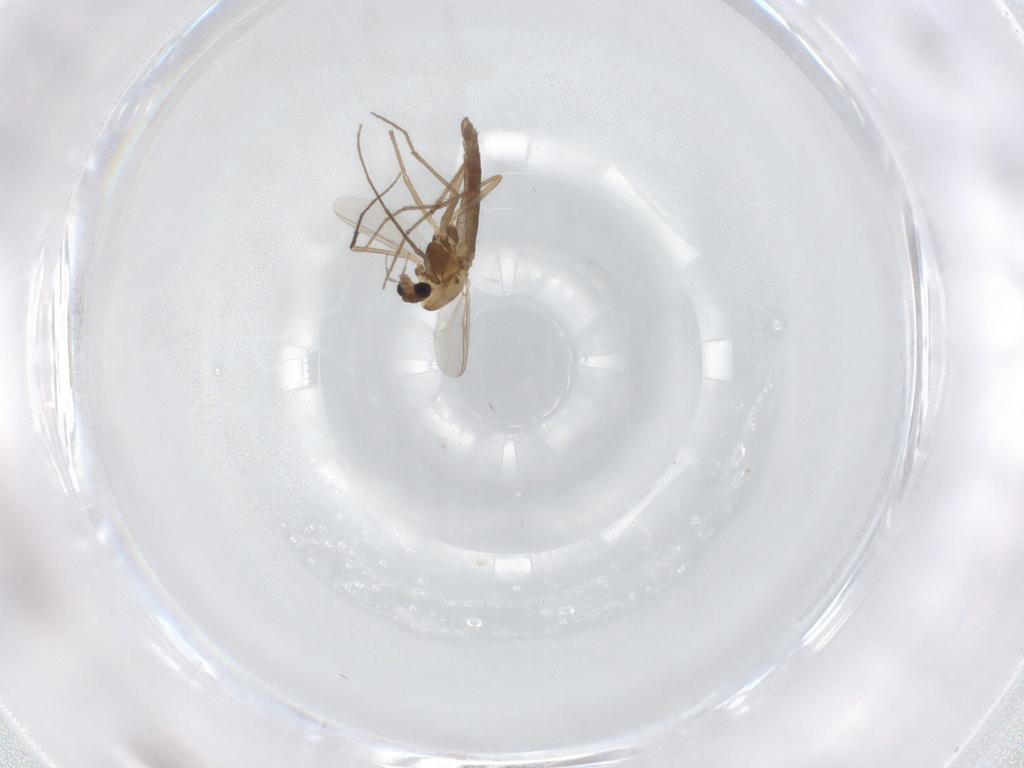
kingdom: Animalia
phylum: Arthropoda
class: Insecta
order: Diptera
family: Chironomidae
